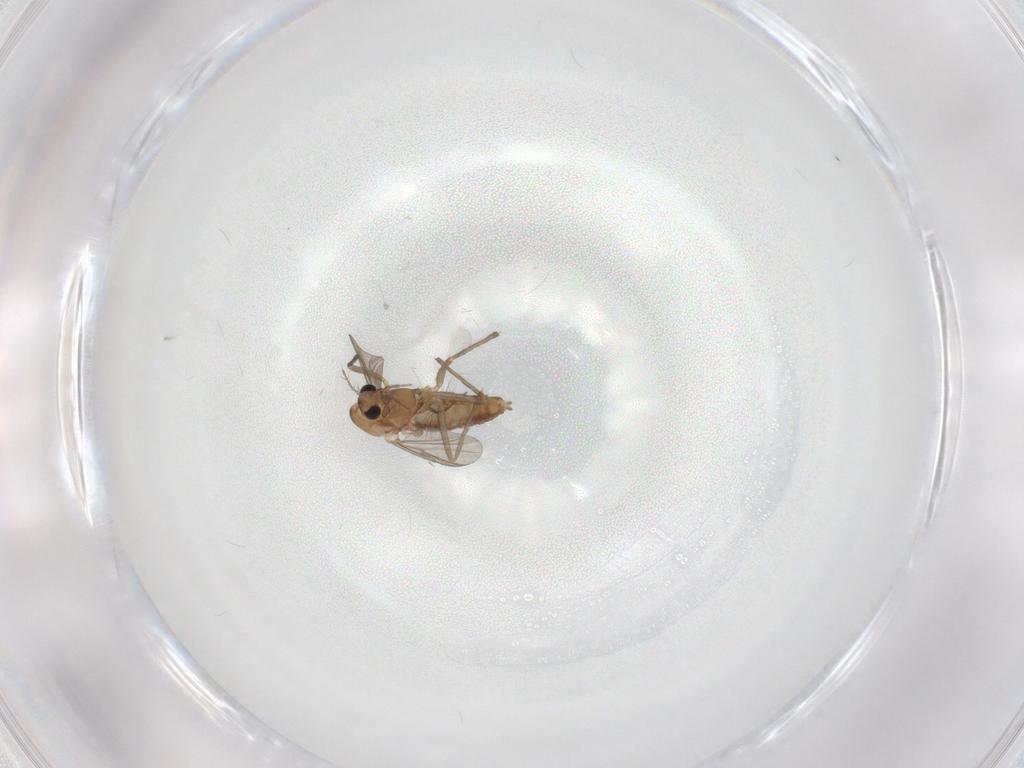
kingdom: Animalia
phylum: Arthropoda
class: Insecta
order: Diptera
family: Chironomidae
